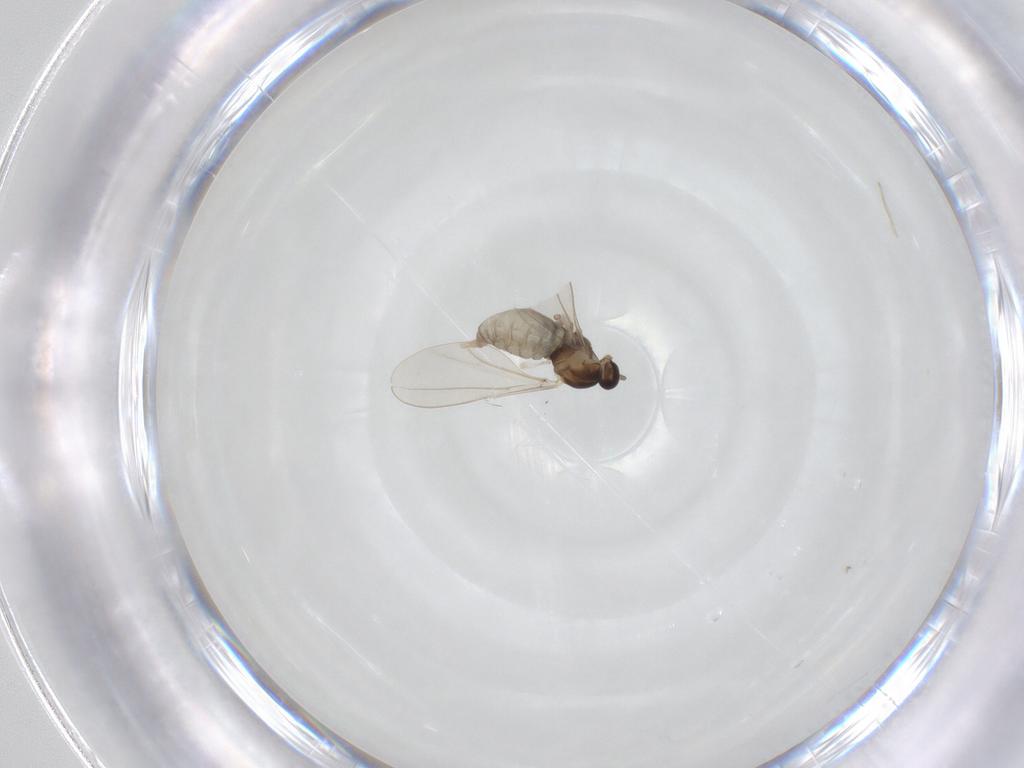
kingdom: Animalia
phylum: Arthropoda
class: Insecta
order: Diptera
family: Cecidomyiidae
